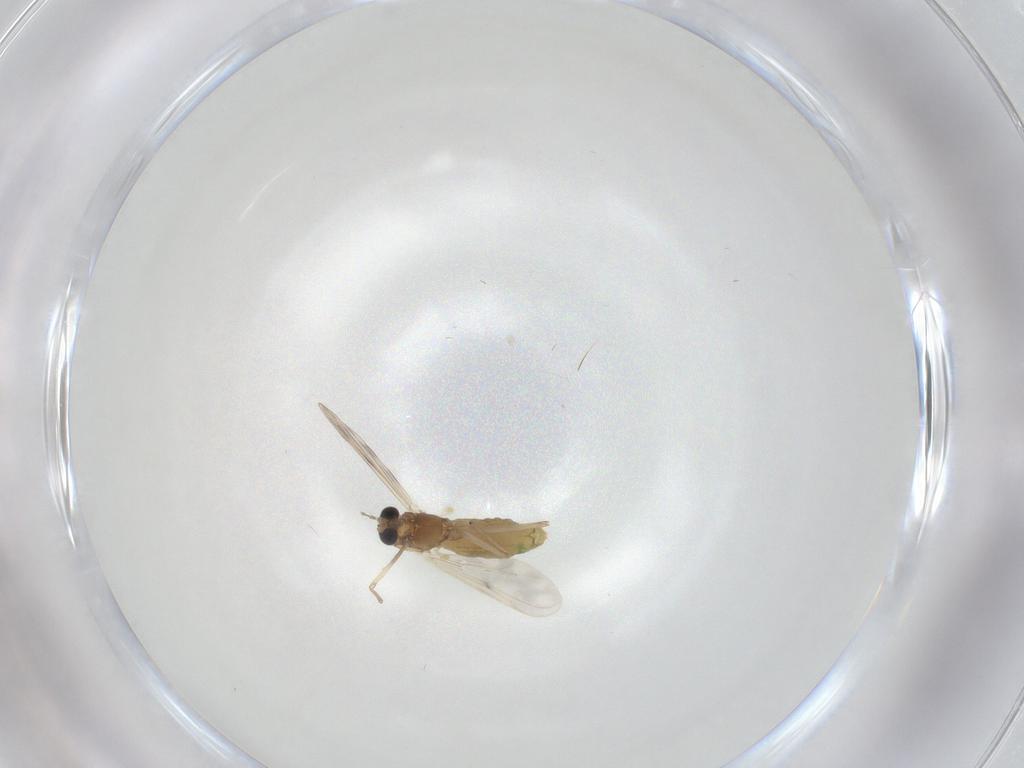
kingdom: Animalia
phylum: Arthropoda
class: Insecta
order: Diptera
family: Chironomidae
